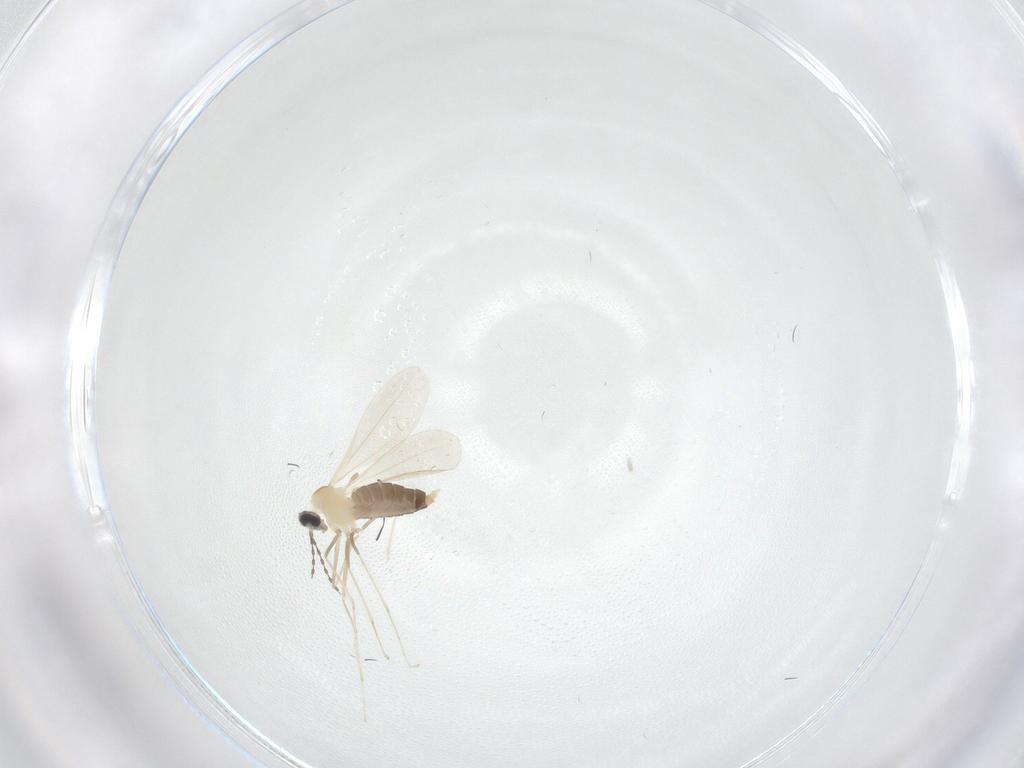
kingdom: Animalia
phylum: Arthropoda
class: Insecta
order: Diptera
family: Cecidomyiidae
